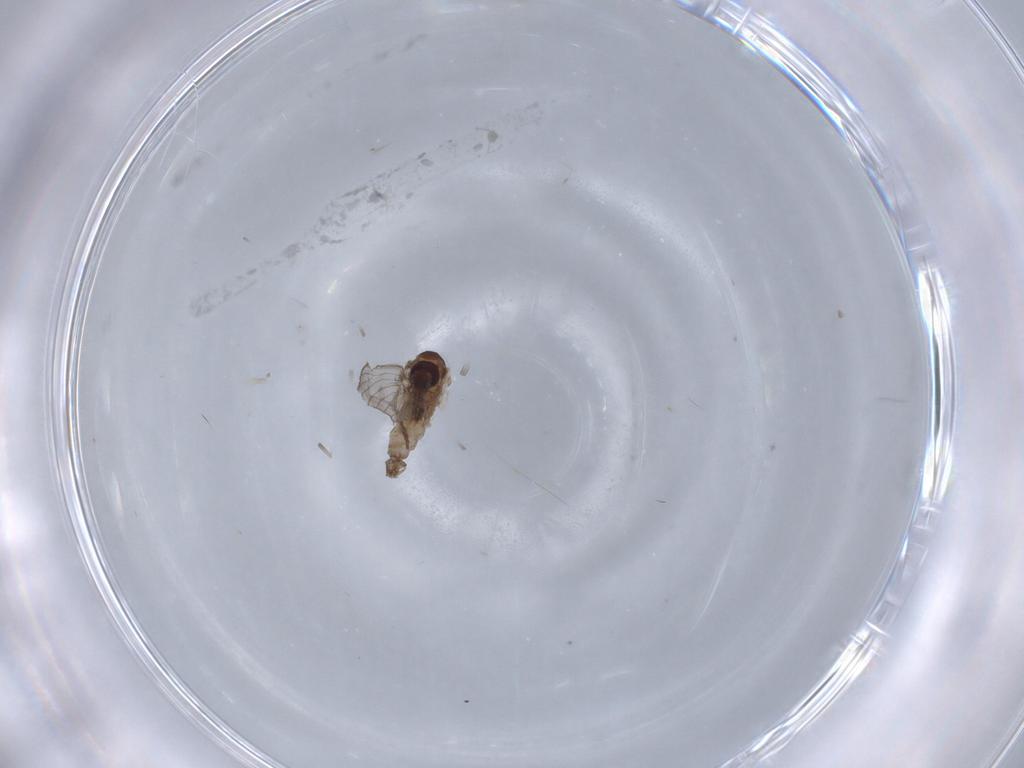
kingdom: Animalia
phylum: Arthropoda
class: Insecta
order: Diptera
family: Psychodidae
